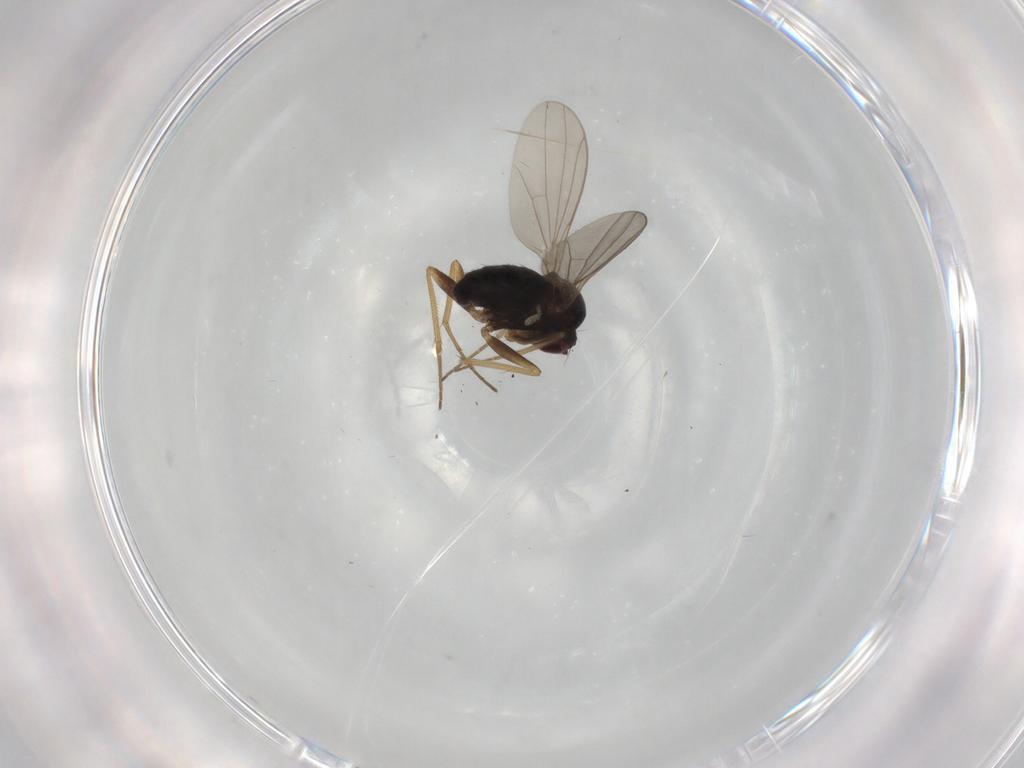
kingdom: Animalia
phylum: Arthropoda
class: Insecta
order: Diptera
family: Dolichopodidae
